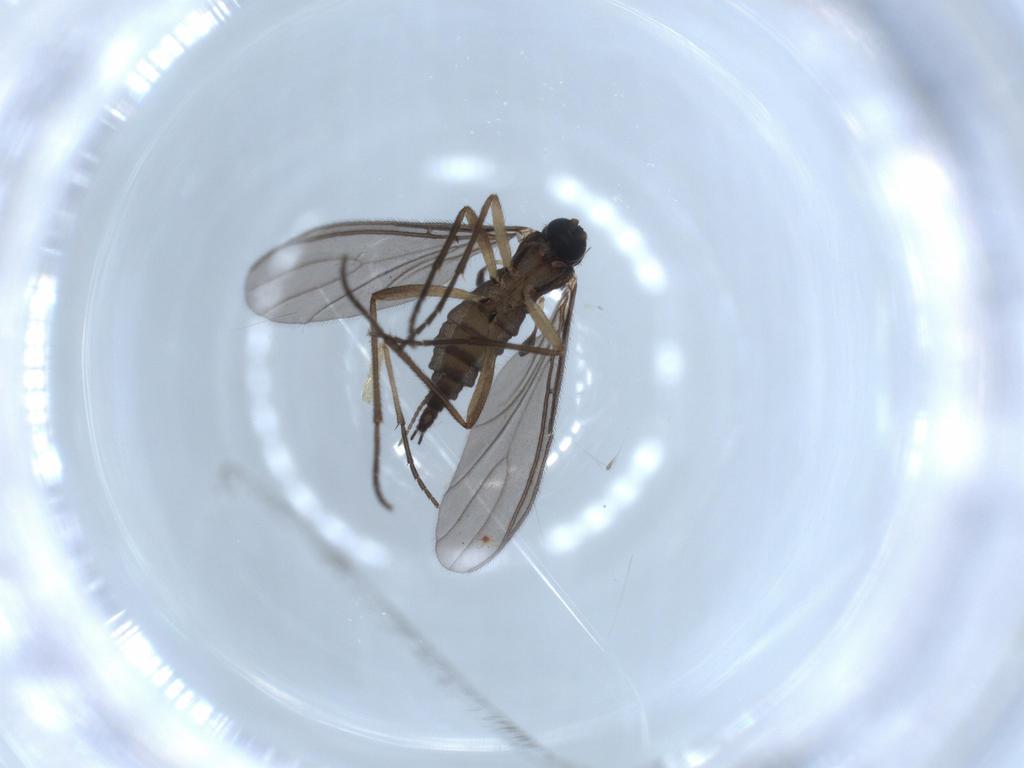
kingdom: Animalia
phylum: Arthropoda
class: Insecta
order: Diptera
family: Sciaridae
